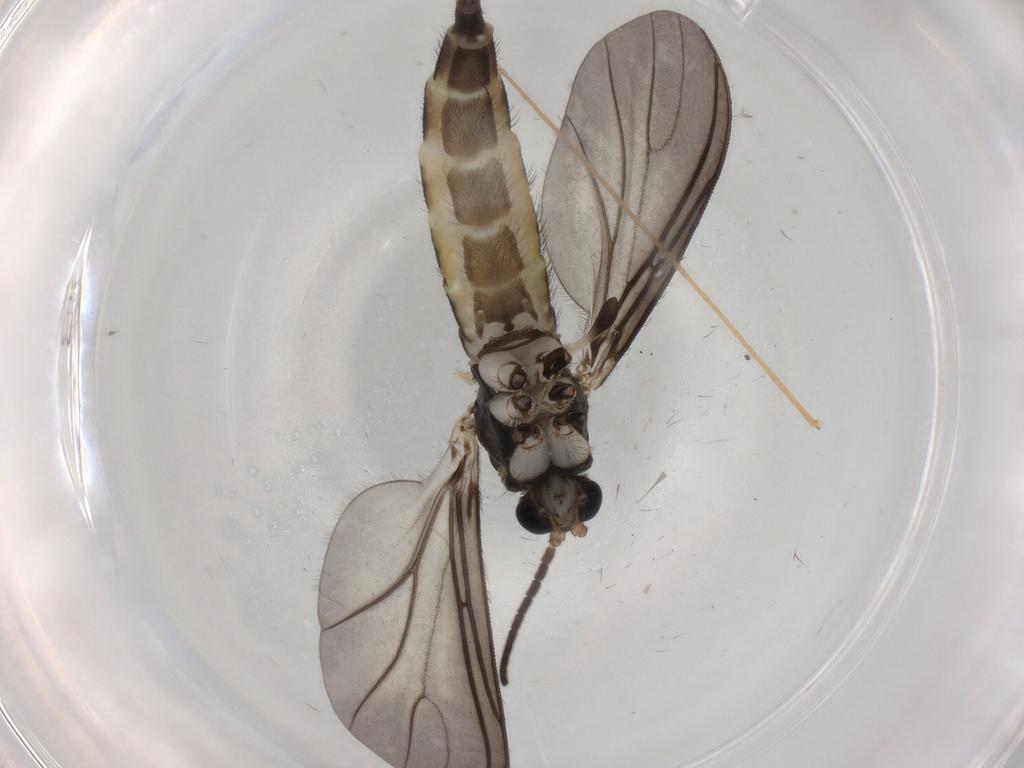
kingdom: Animalia
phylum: Arthropoda
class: Insecta
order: Diptera
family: Sciaridae
